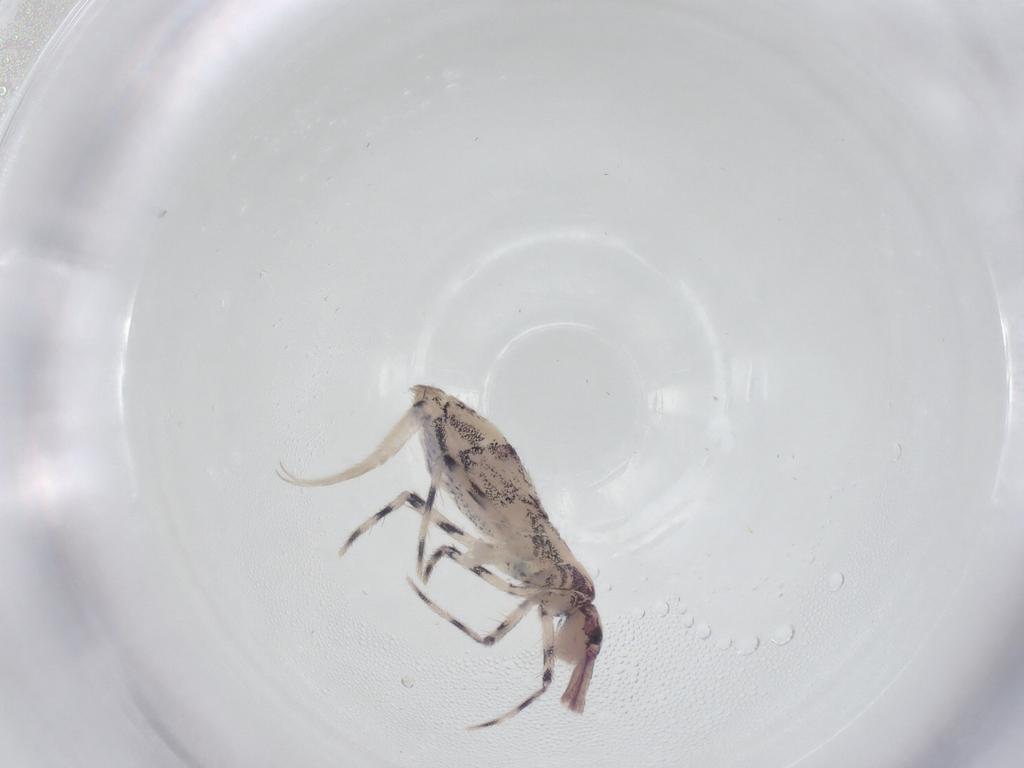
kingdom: Animalia
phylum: Arthropoda
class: Collembola
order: Entomobryomorpha
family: Entomobryidae
